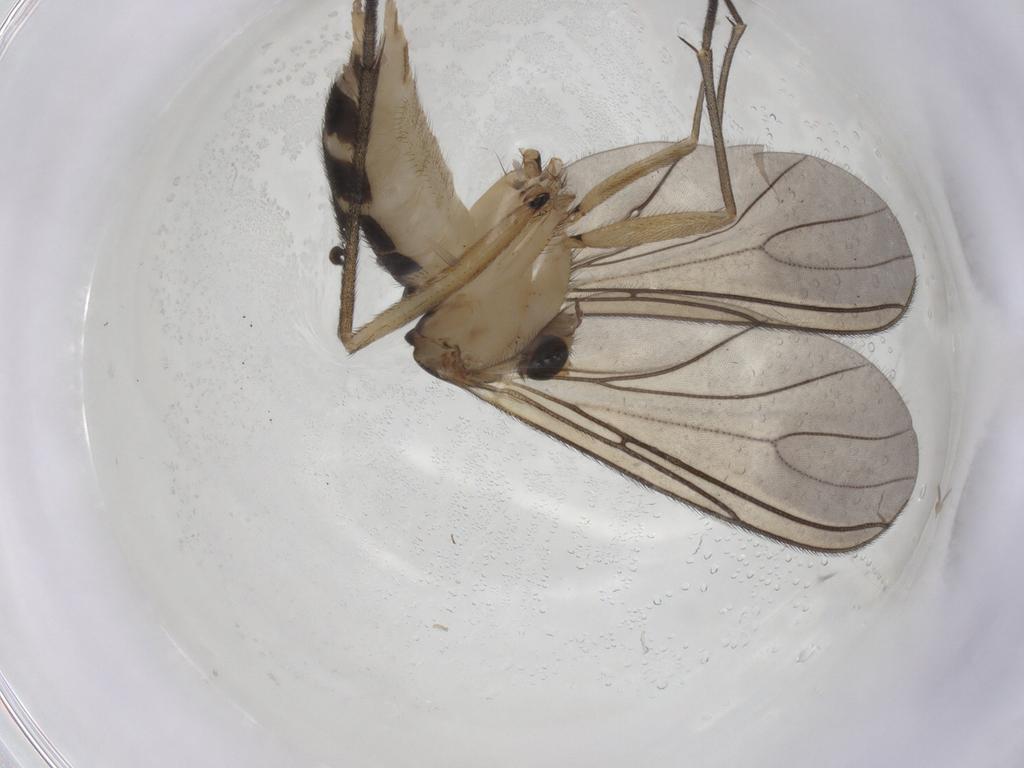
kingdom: Animalia
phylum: Arthropoda
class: Insecta
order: Diptera
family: Sciaridae
